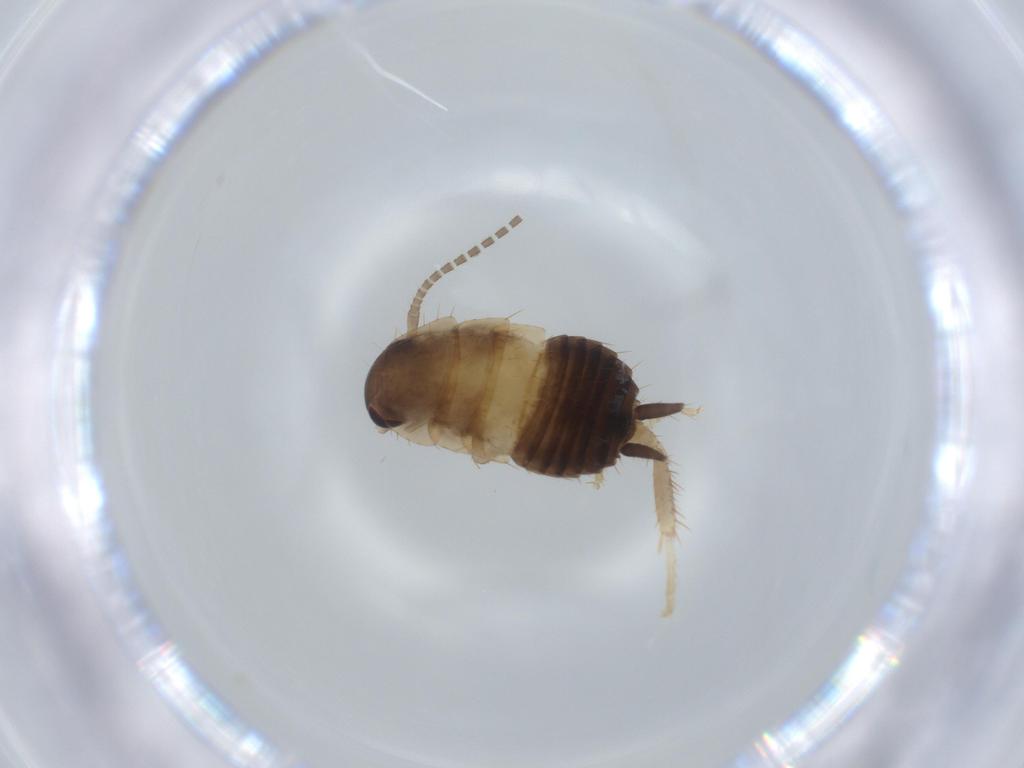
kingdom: Animalia
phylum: Arthropoda
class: Insecta
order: Blattodea
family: Ectobiidae
